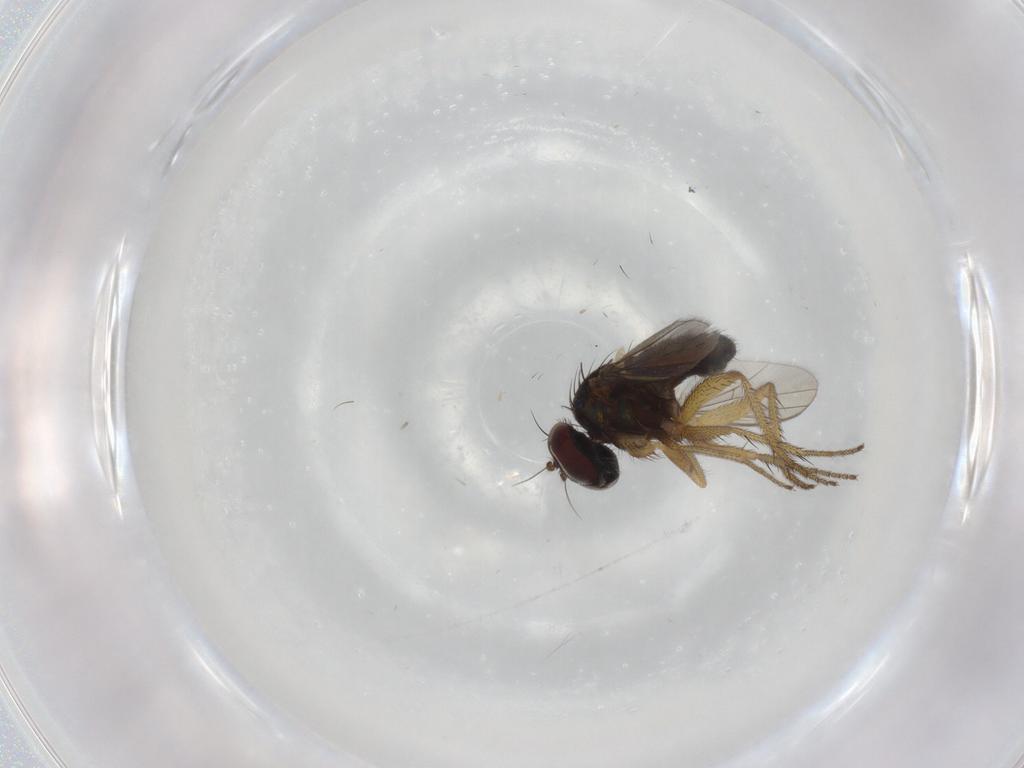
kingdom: Animalia
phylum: Arthropoda
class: Insecta
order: Diptera
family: Dolichopodidae
